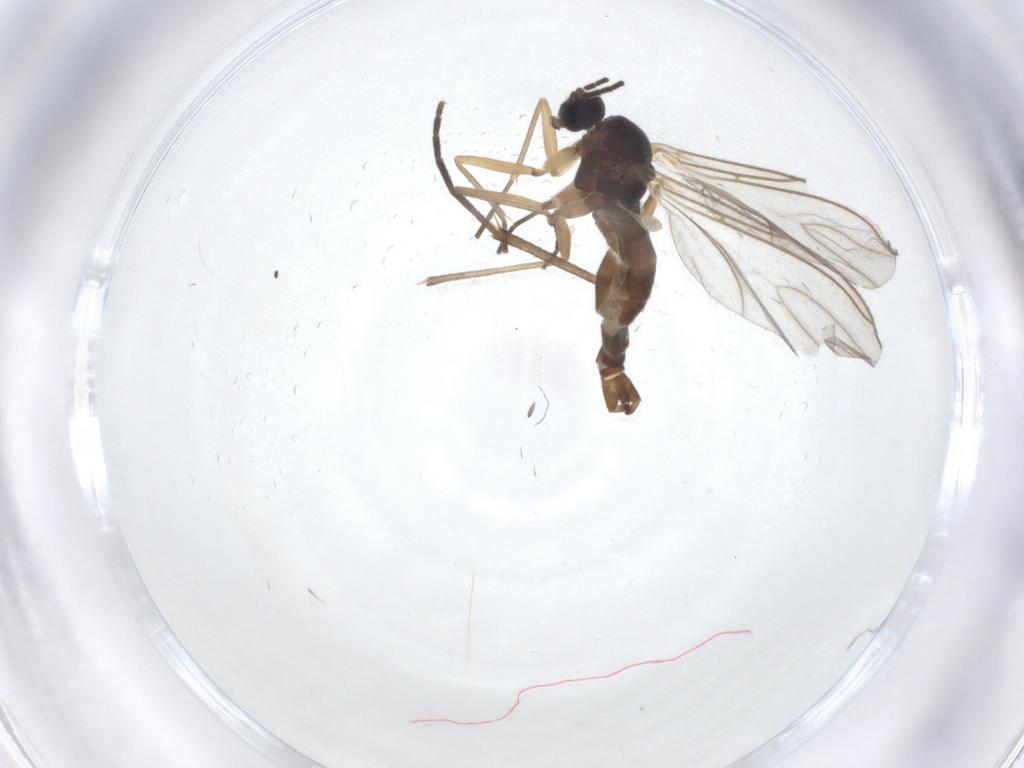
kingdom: Animalia
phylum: Arthropoda
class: Insecta
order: Diptera
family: Sciaridae
